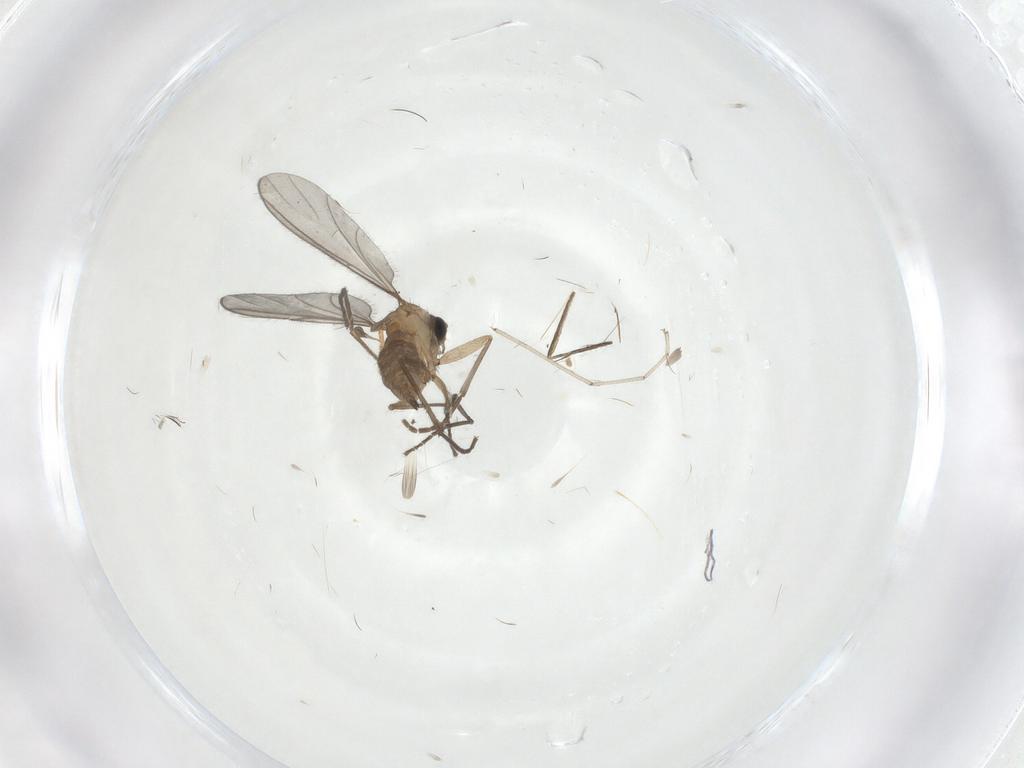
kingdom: Animalia
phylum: Arthropoda
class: Insecta
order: Diptera
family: Sciaridae
